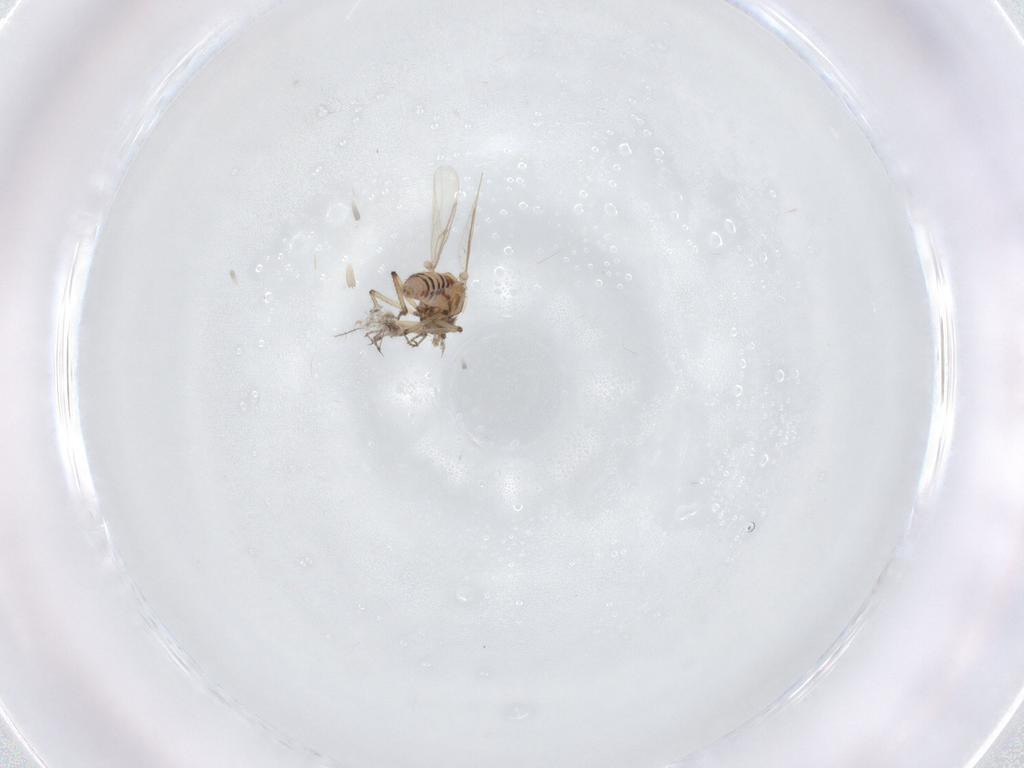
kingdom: Animalia
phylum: Arthropoda
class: Insecta
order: Diptera
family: Ceratopogonidae
